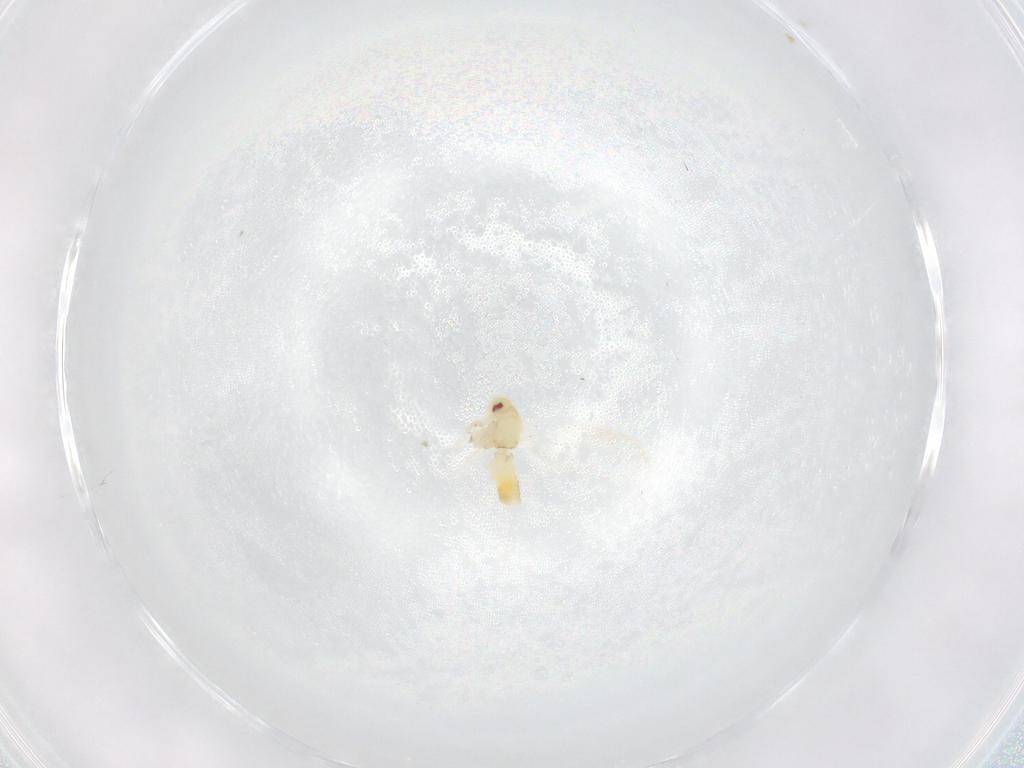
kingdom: Animalia
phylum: Arthropoda
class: Insecta
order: Hemiptera
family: Aleyrodidae
